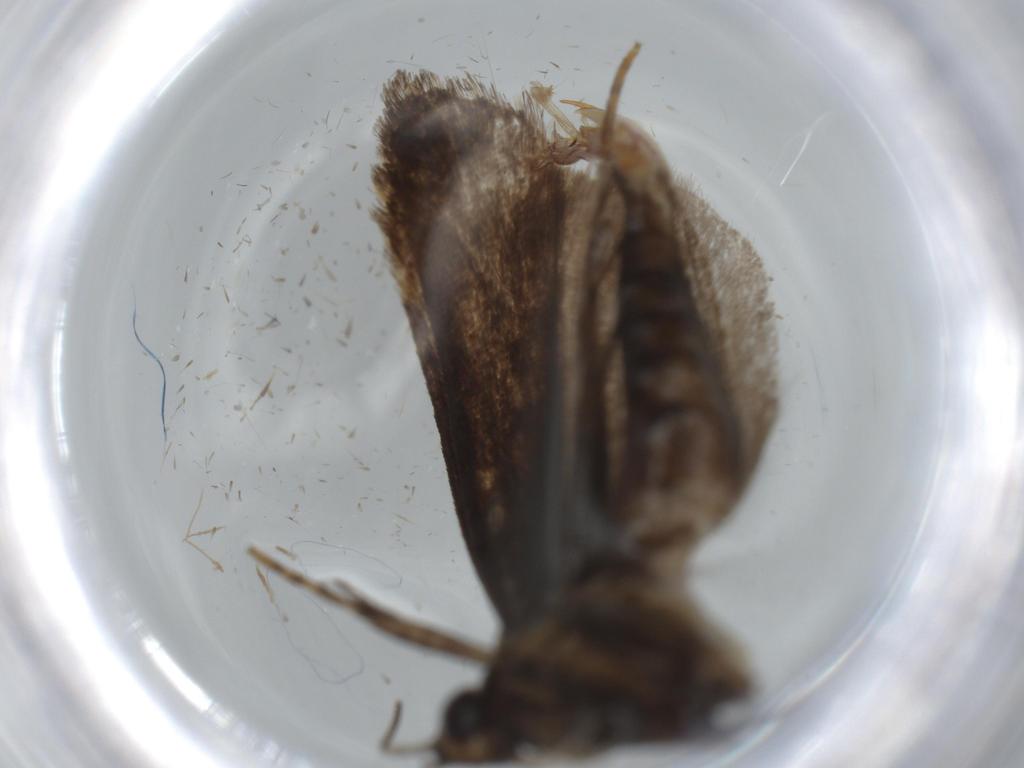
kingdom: Animalia
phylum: Arthropoda
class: Insecta
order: Lepidoptera
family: Tineidae
